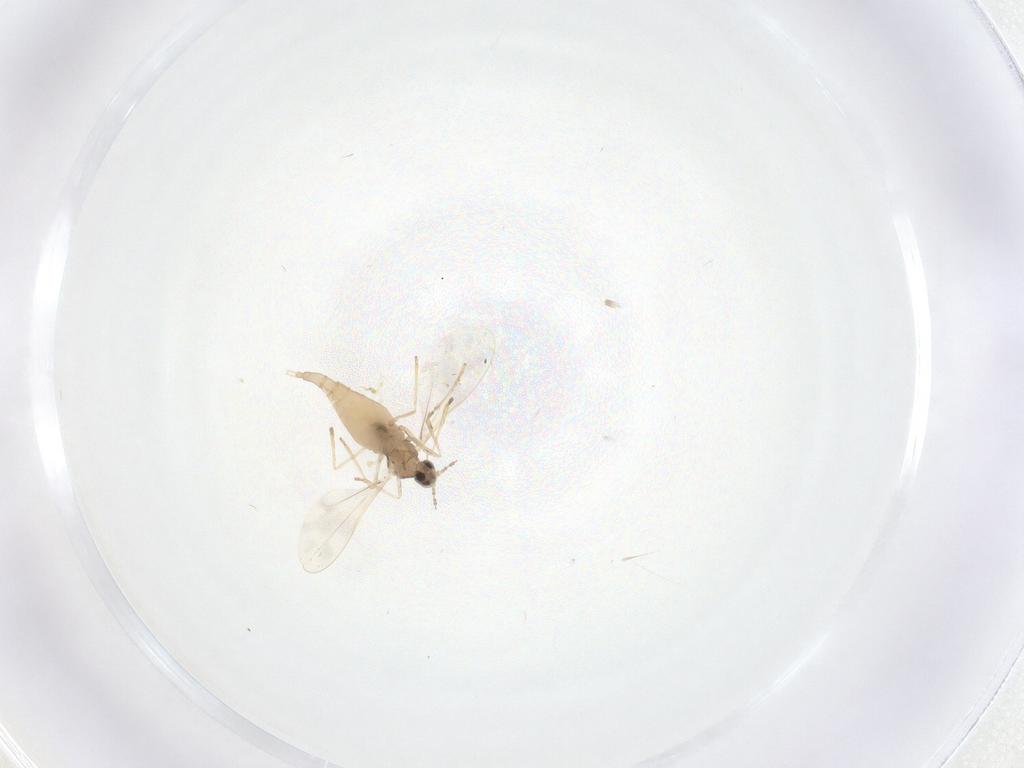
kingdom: Animalia
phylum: Arthropoda
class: Insecta
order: Diptera
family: Cecidomyiidae
